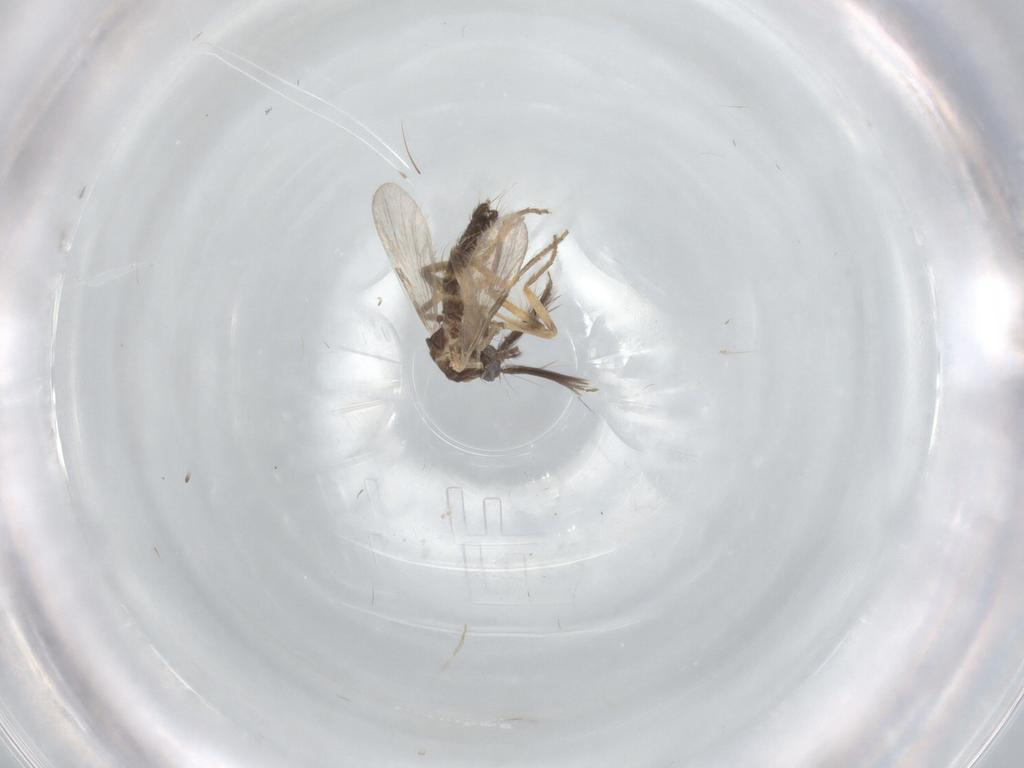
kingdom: Animalia
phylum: Arthropoda
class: Insecta
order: Diptera
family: Ceratopogonidae
